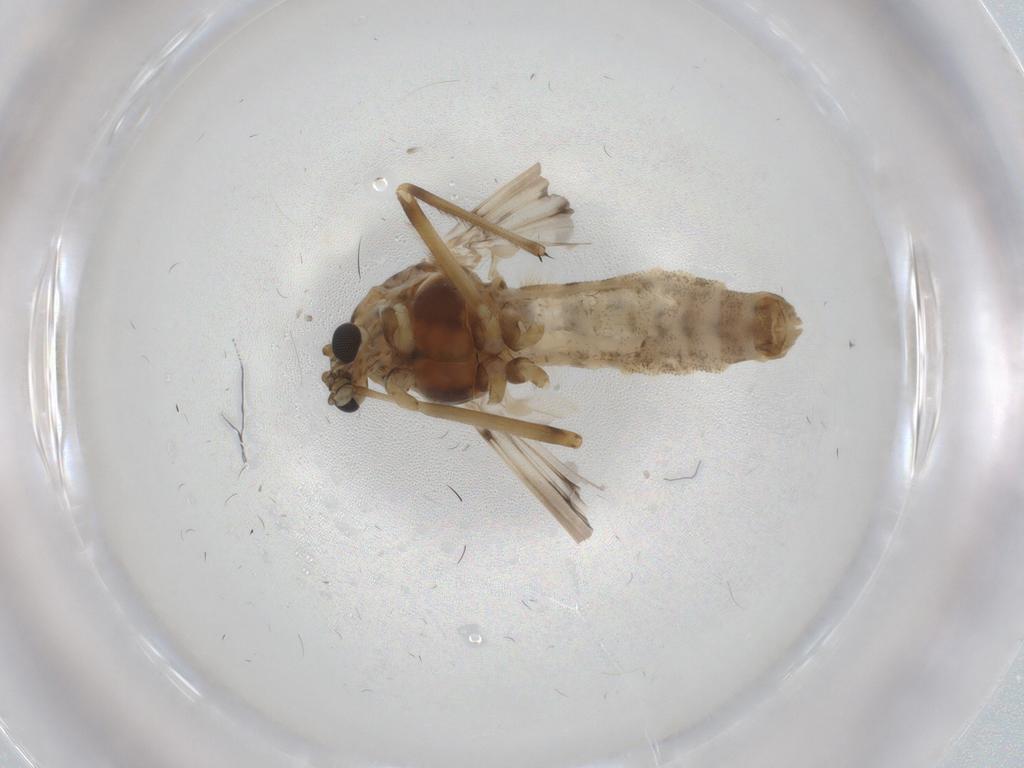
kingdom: Animalia
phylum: Arthropoda
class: Insecta
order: Diptera
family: Chironomidae
